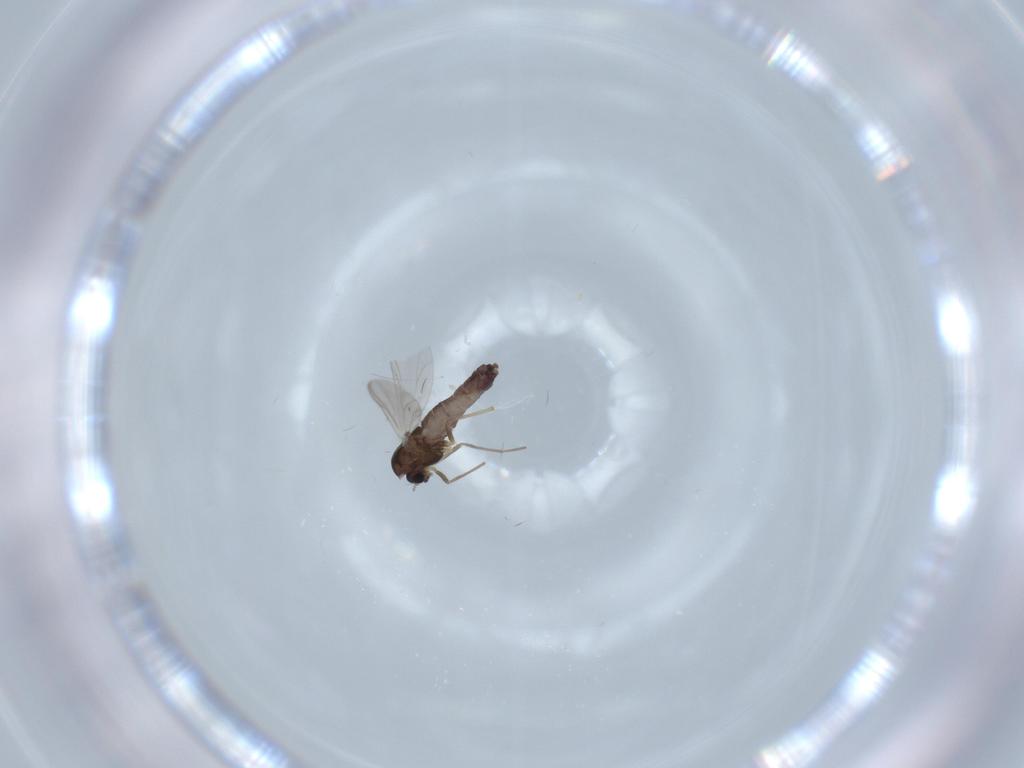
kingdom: Animalia
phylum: Arthropoda
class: Insecta
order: Diptera
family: Chironomidae
